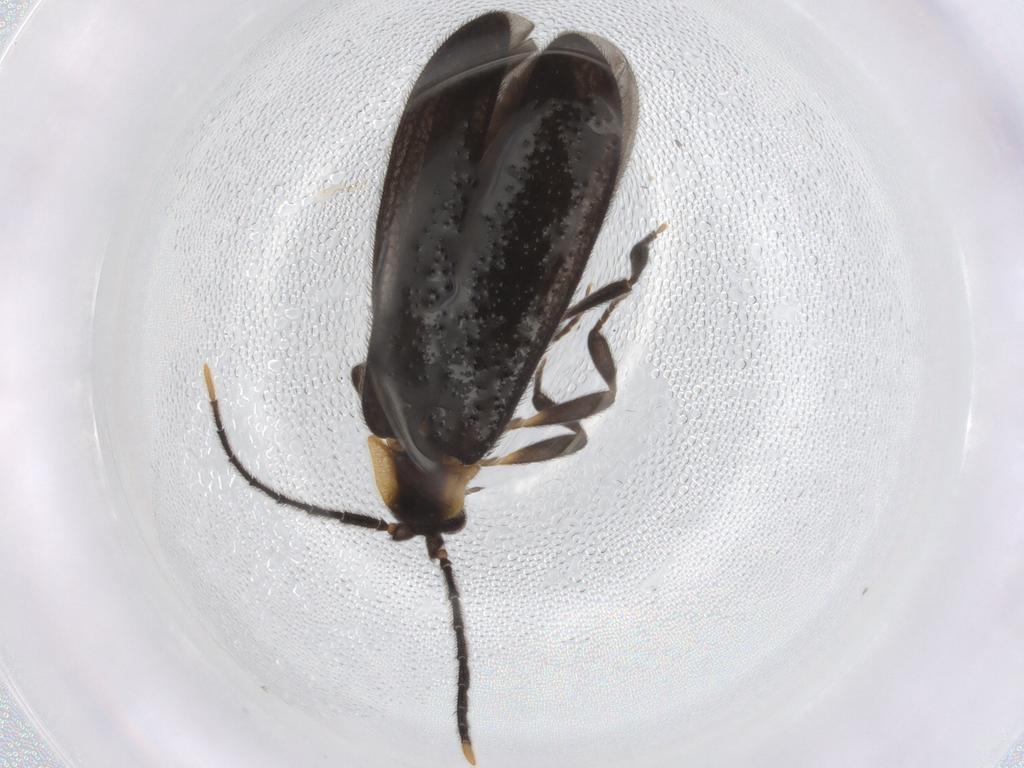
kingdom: Animalia
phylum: Arthropoda
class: Insecta
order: Coleoptera
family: Lycidae
